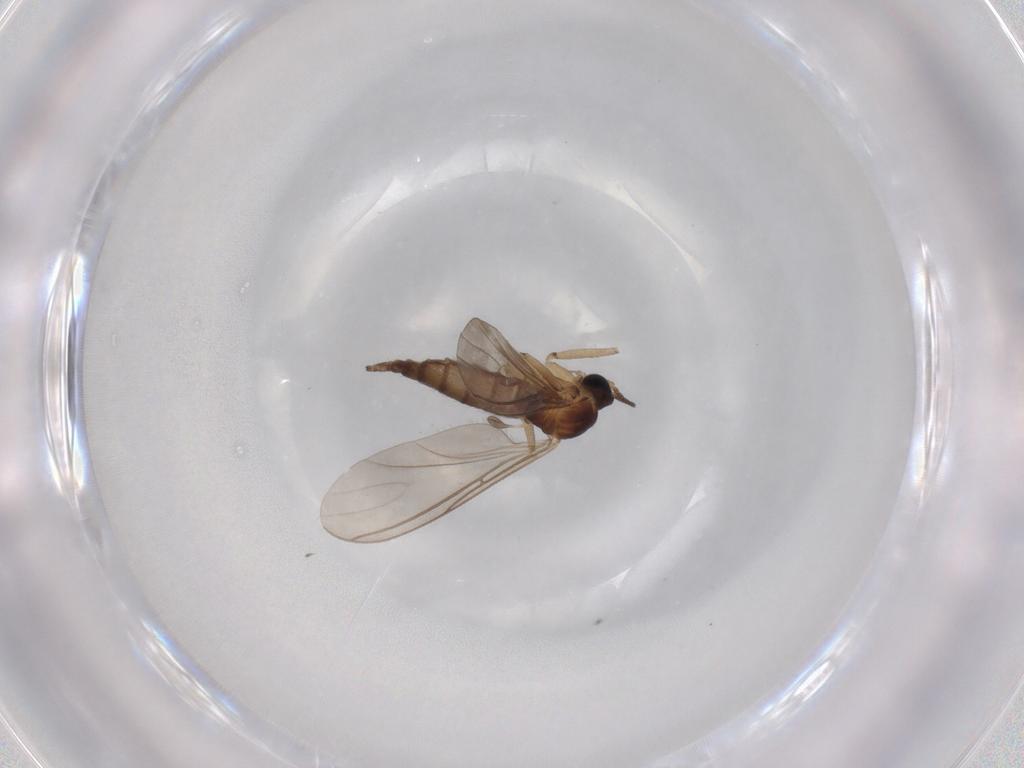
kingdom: Animalia
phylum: Arthropoda
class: Insecta
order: Diptera
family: Sciaridae
